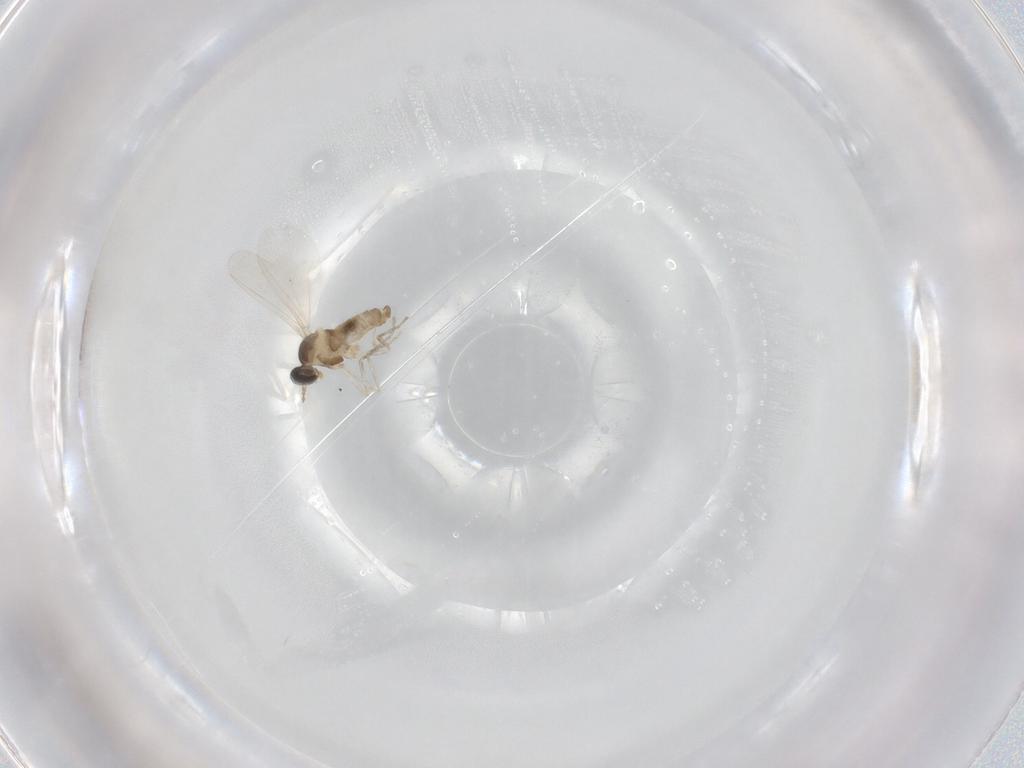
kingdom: Animalia
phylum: Arthropoda
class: Insecta
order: Diptera
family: Cecidomyiidae
